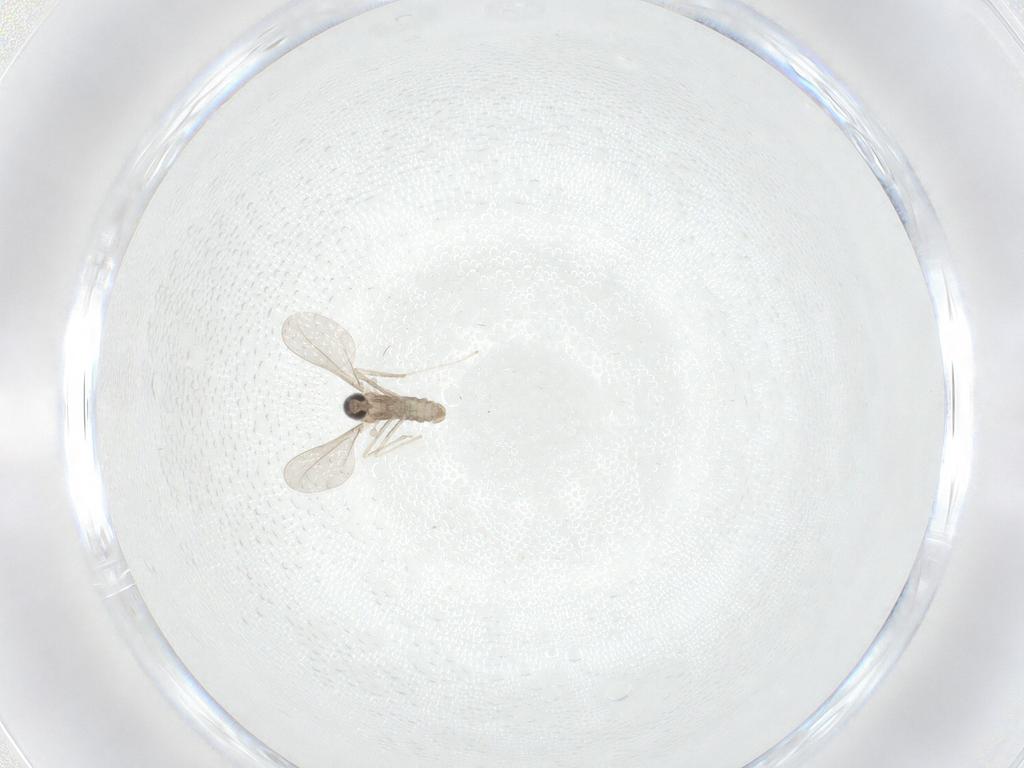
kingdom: Animalia
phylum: Arthropoda
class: Insecta
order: Diptera
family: Cecidomyiidae
